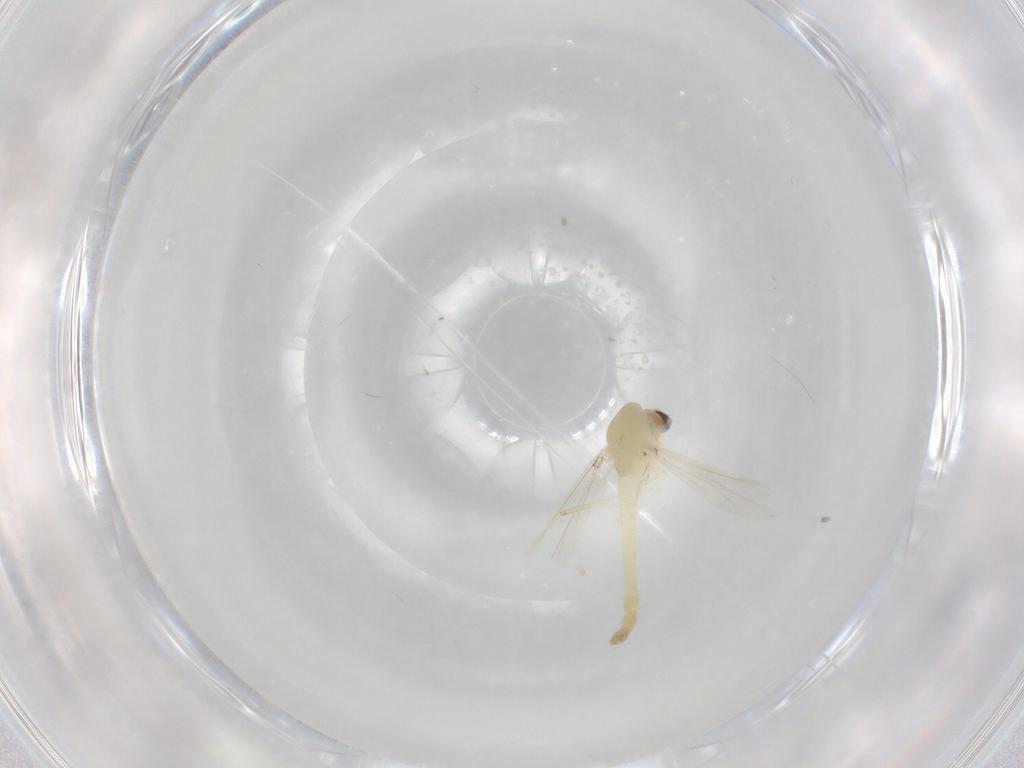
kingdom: Animalia
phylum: Arthropoda
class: Insecta
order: Diptera
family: Chironomidae
